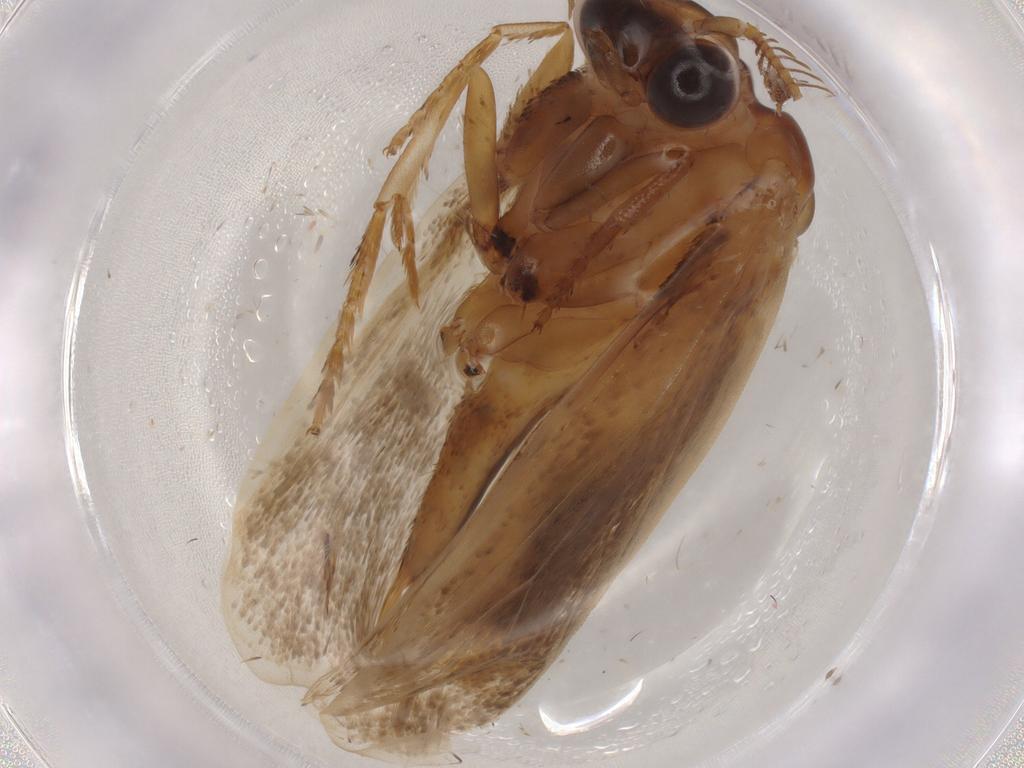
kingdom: Animalia
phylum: Arthropoda
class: Insecta
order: Lepidoptera
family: Eriocottidae
